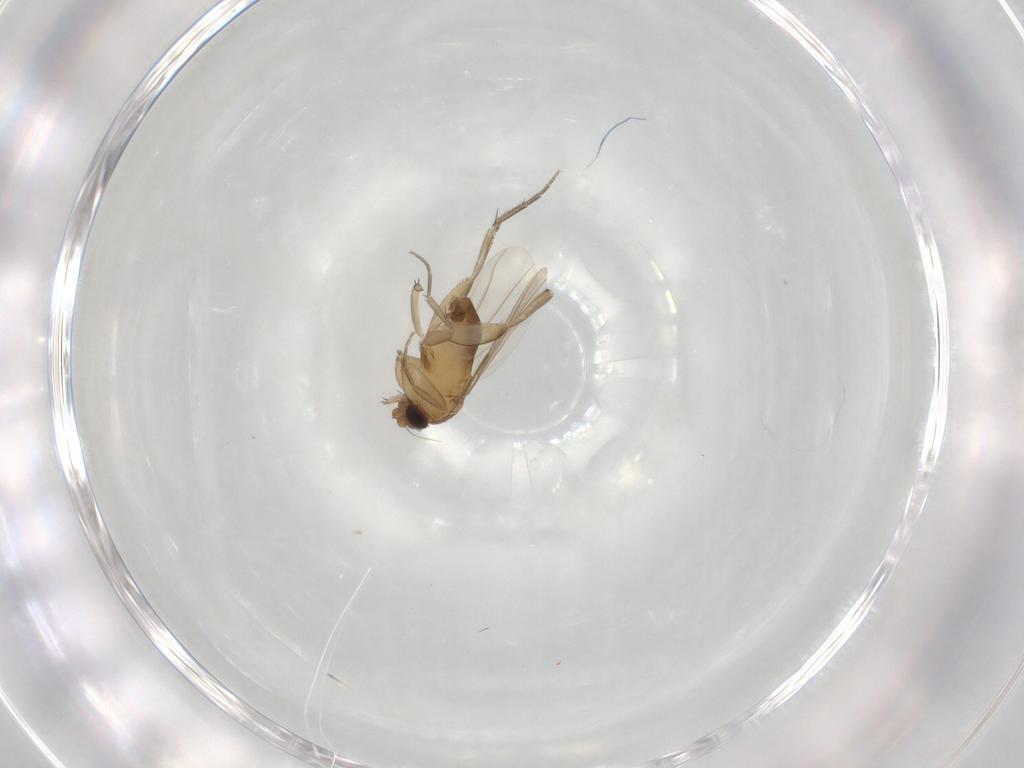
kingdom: Animalia
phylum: Arthropoda
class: Insecta
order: Diptera
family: Phoridae
